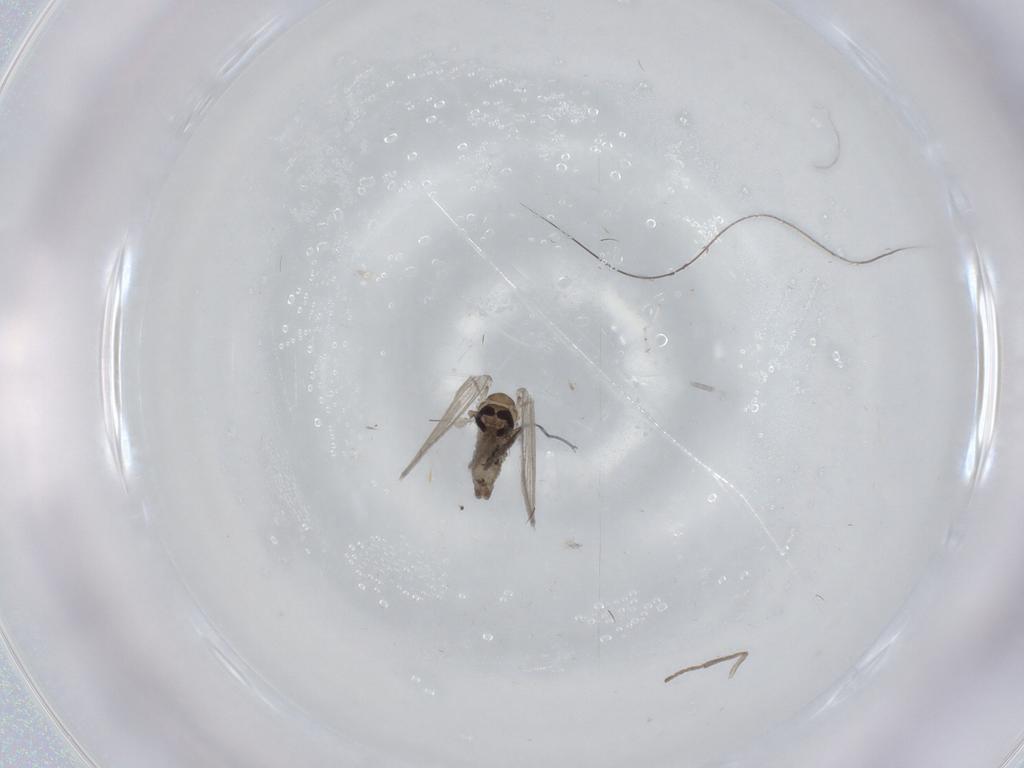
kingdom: Animalia
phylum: Arthropoda
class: Insecta
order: Diptera
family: Psychodidae
